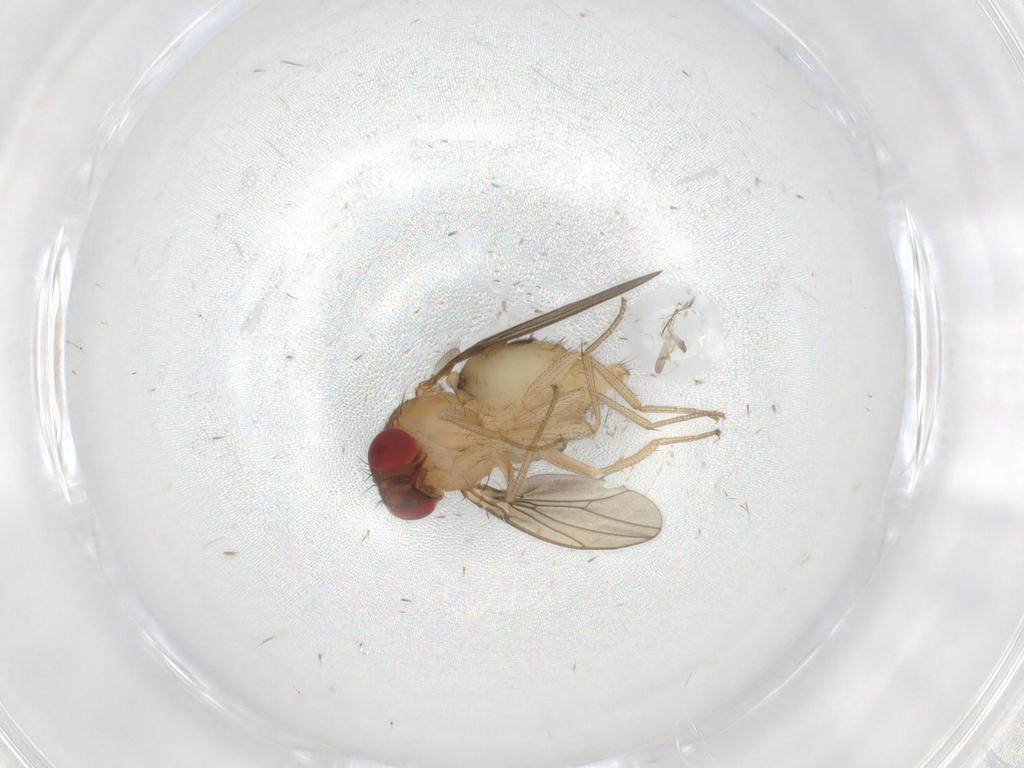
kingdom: Animalia
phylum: Arthropoda
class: Insecta
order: Diptera
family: Drosophilidae
